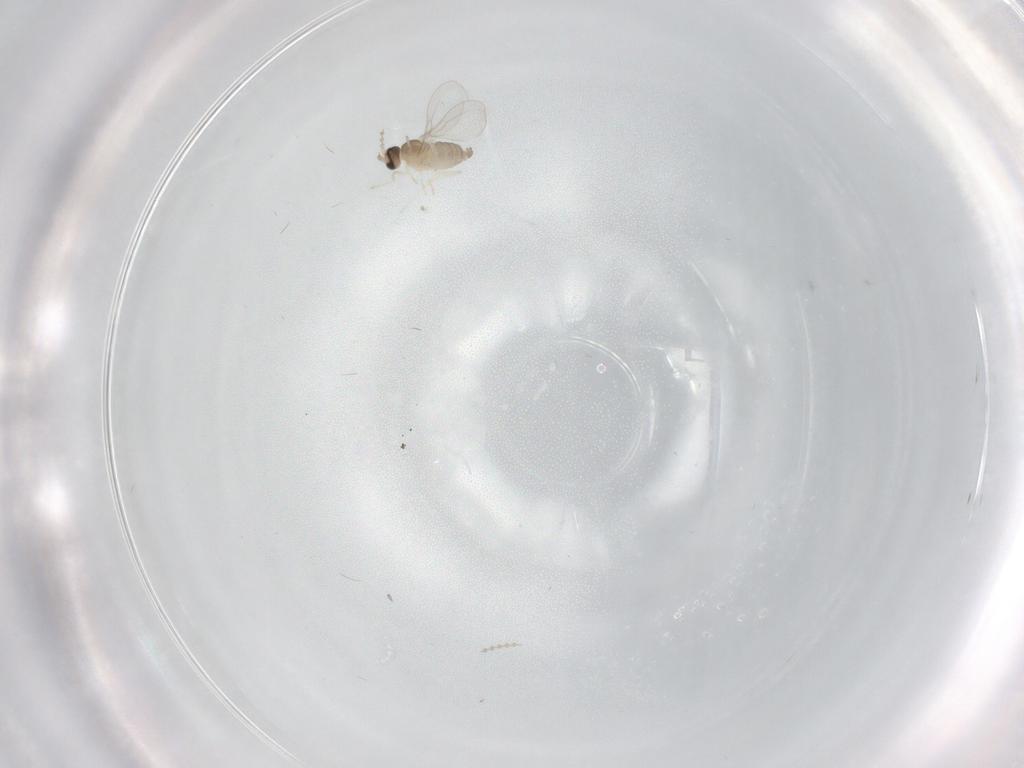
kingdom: Animalia
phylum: Arthropoda
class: Insecta
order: Diptera
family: Cecidomyiidae
